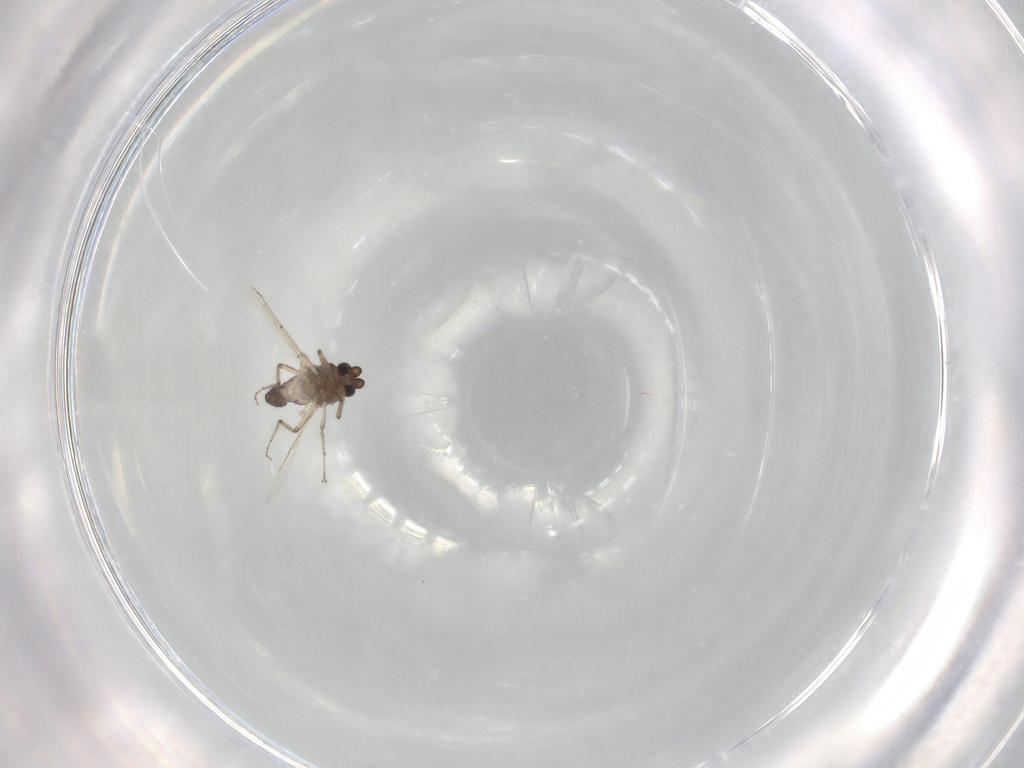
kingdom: Animalia
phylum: Arthropoda
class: Insecta
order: Diptera
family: Ceratopogonidae
